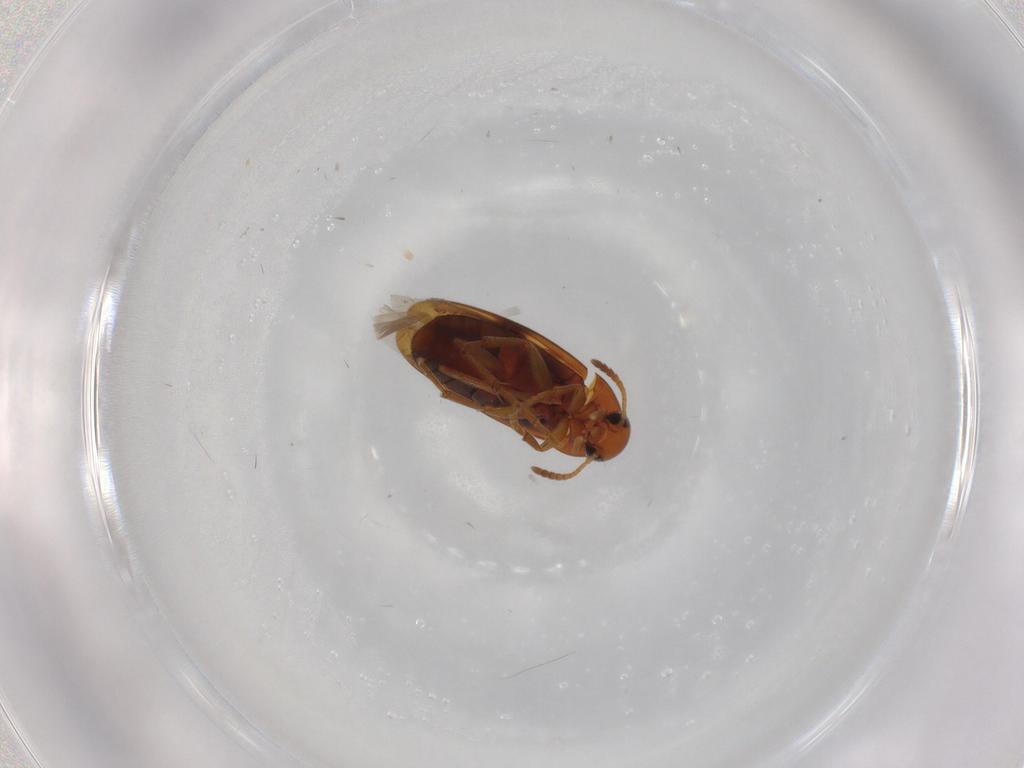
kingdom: Animalia
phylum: Arthropoda
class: Insecta
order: Coleoptera
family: Scraptiidae
